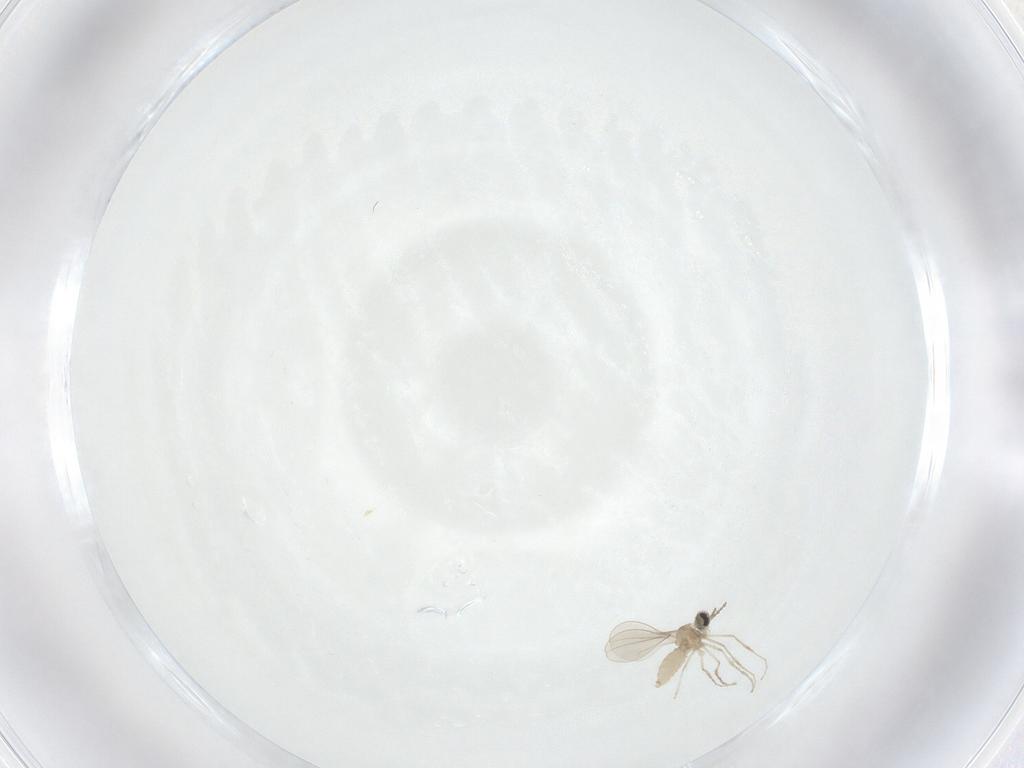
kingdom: Animalia
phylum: Arthropoda
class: Insecta
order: Diptera
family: Cecidomyiidae
